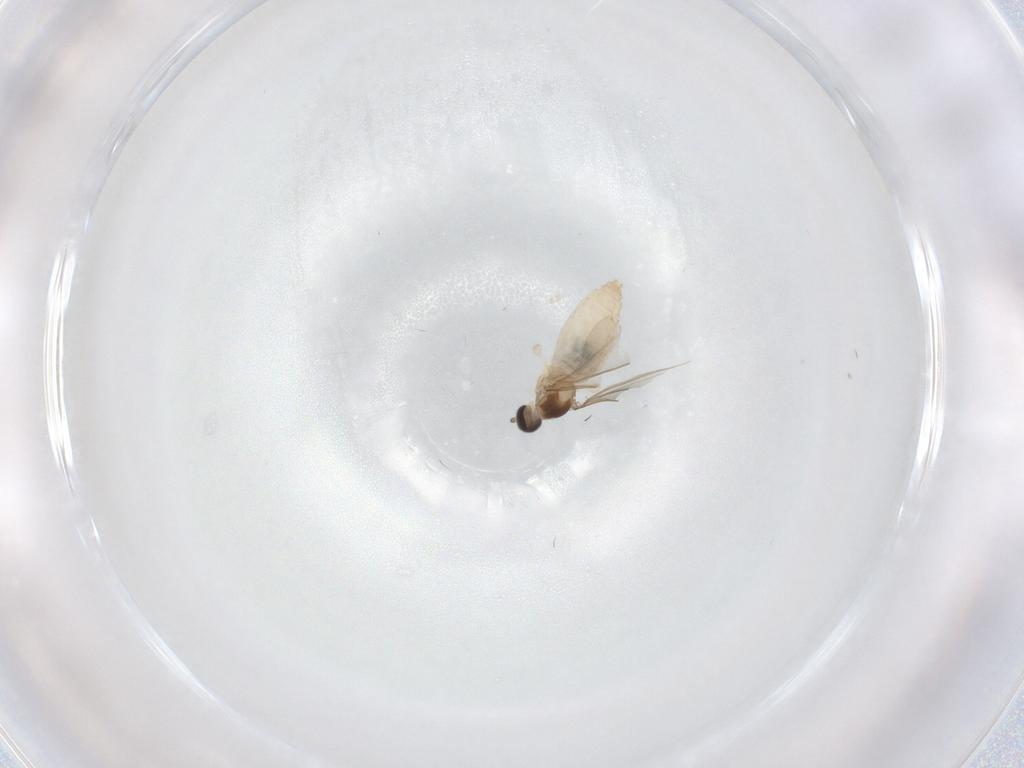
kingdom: Animalia
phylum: Arthropoda
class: Insecta
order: Diptera
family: Cecidomyiidae
